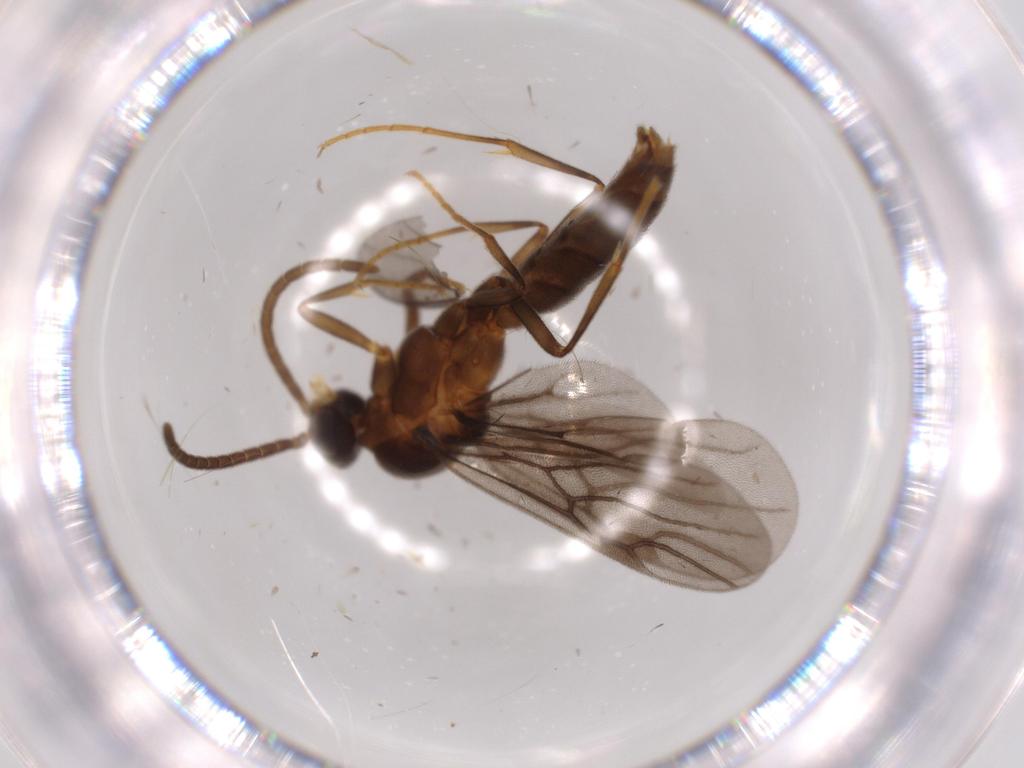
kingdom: Animalia
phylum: Arthropoda
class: Insecta
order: Hymenoptera
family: Formicidae
